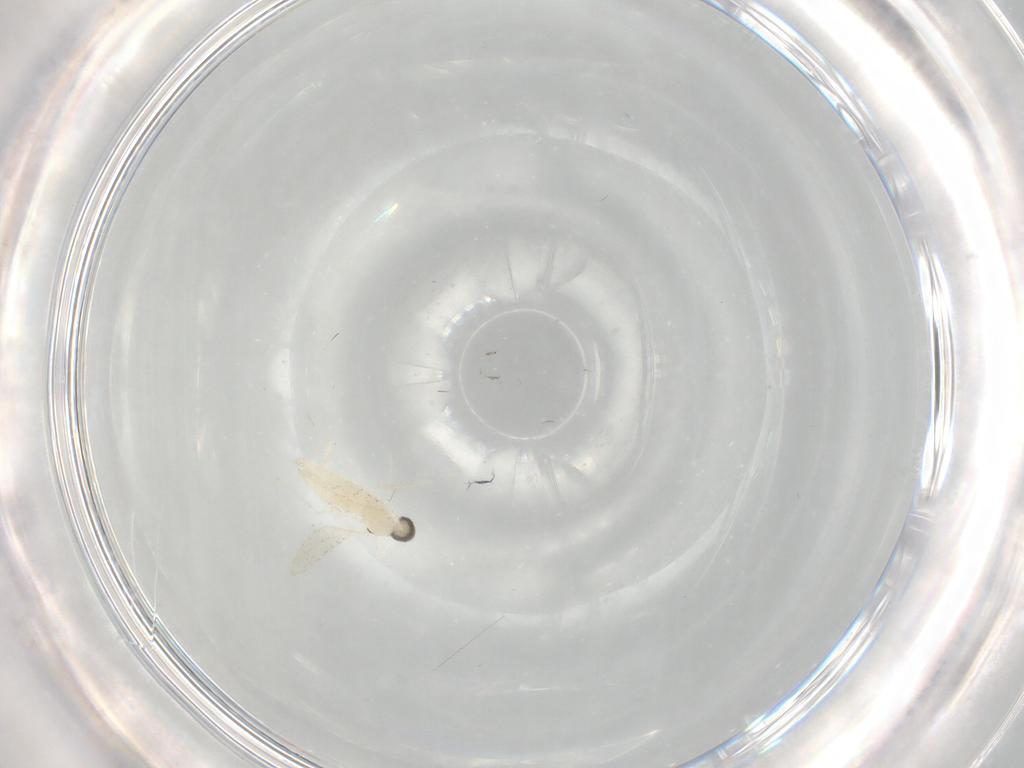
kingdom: Animalia
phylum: Arthropoda
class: Insecta
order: Diptera
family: Cecidomyiidae
